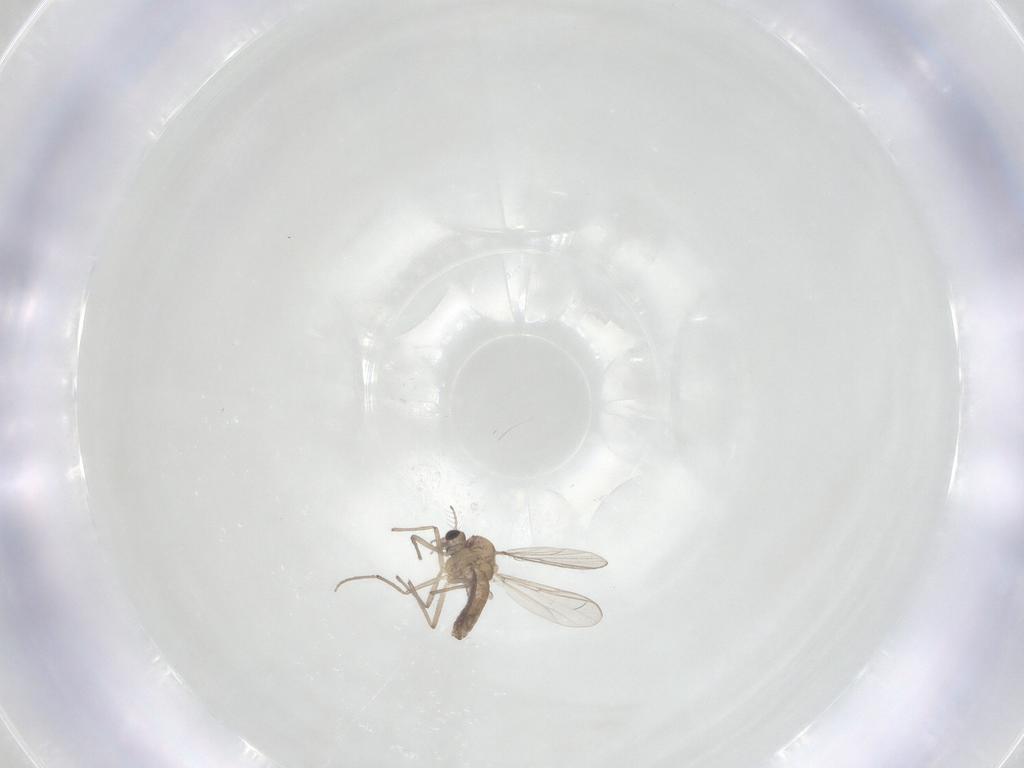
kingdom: Animalia
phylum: Arthropoda
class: Insecta
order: Diptera
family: Chironomidae
